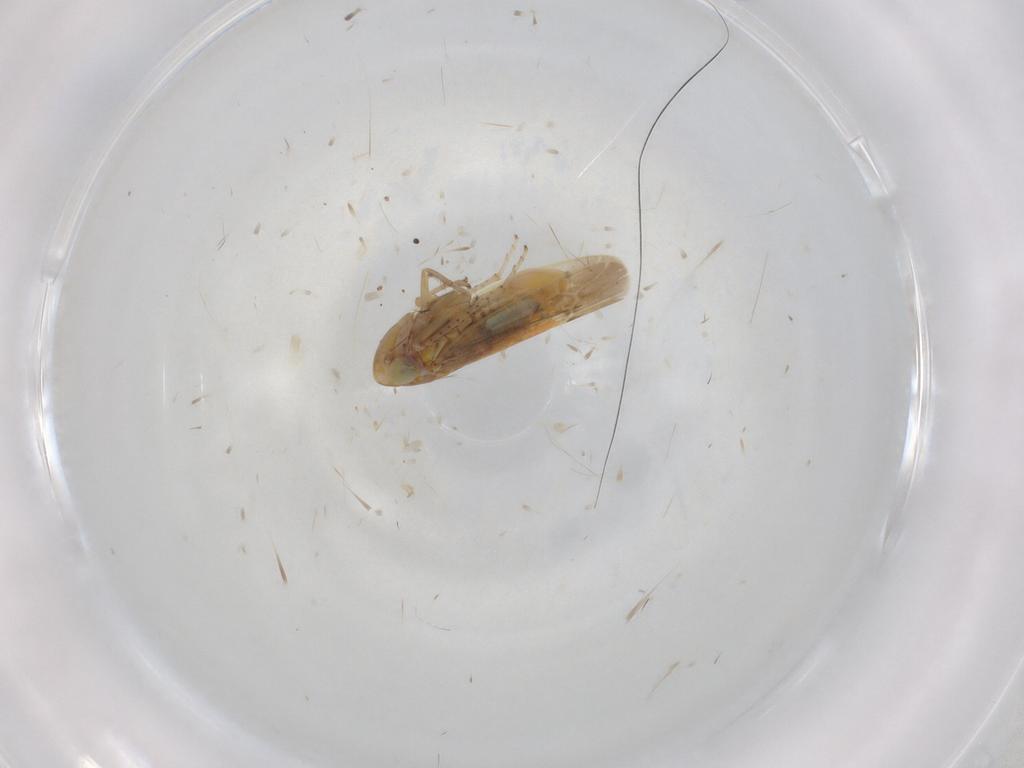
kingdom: Animalia
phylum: Arthropoda
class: Insecta
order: Hemiptera
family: Cicadellidae
